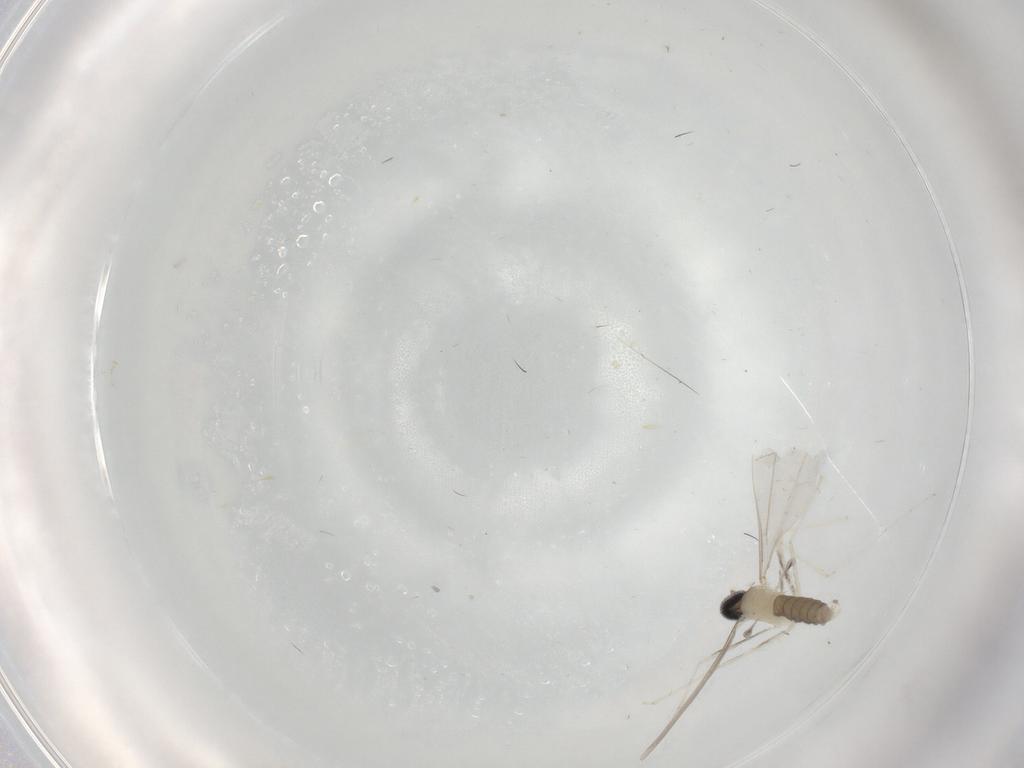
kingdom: Animalia
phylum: Arthropoda
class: Insecta
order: Diptera
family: Cecidomyiidae
